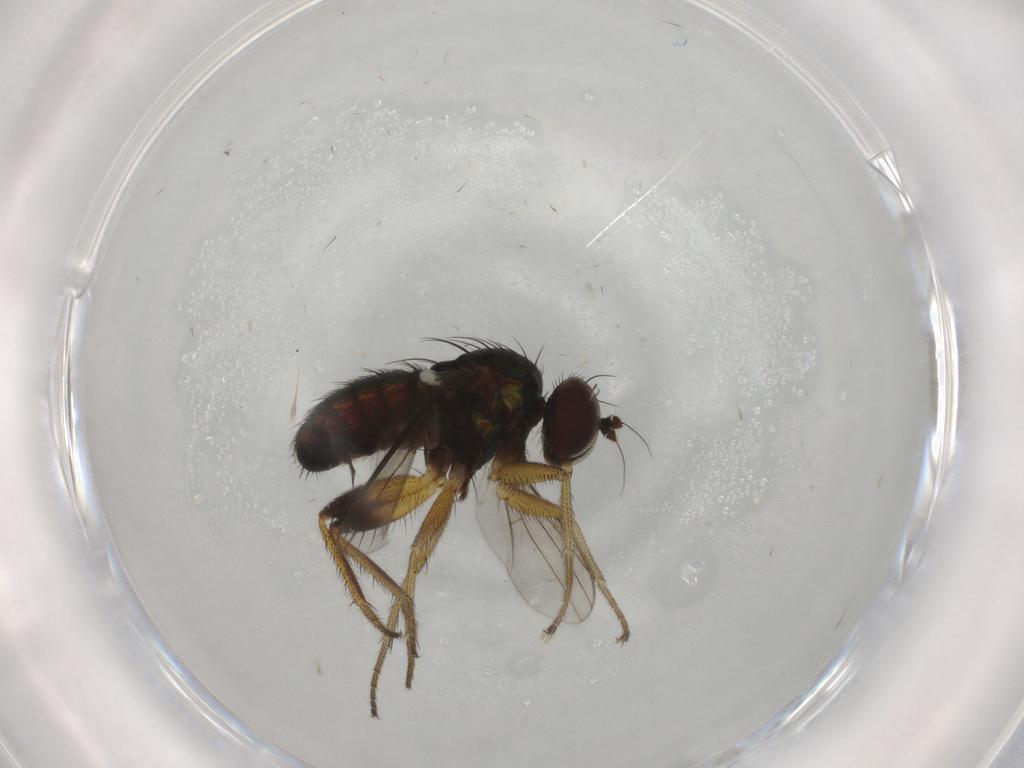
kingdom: Animalia
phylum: Arthropoda
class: Insecta
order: Diptera
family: Dolichopodidae
